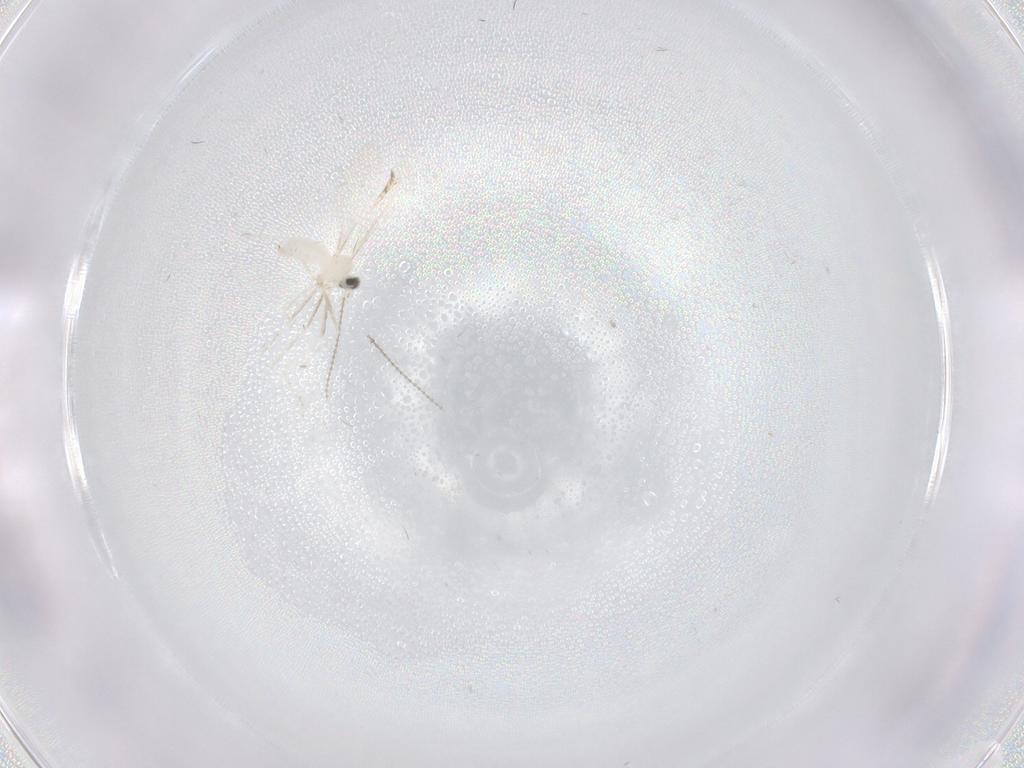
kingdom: Animalia
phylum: Arthropoda
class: Insecta
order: Diptera
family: Cecidomyiidae
